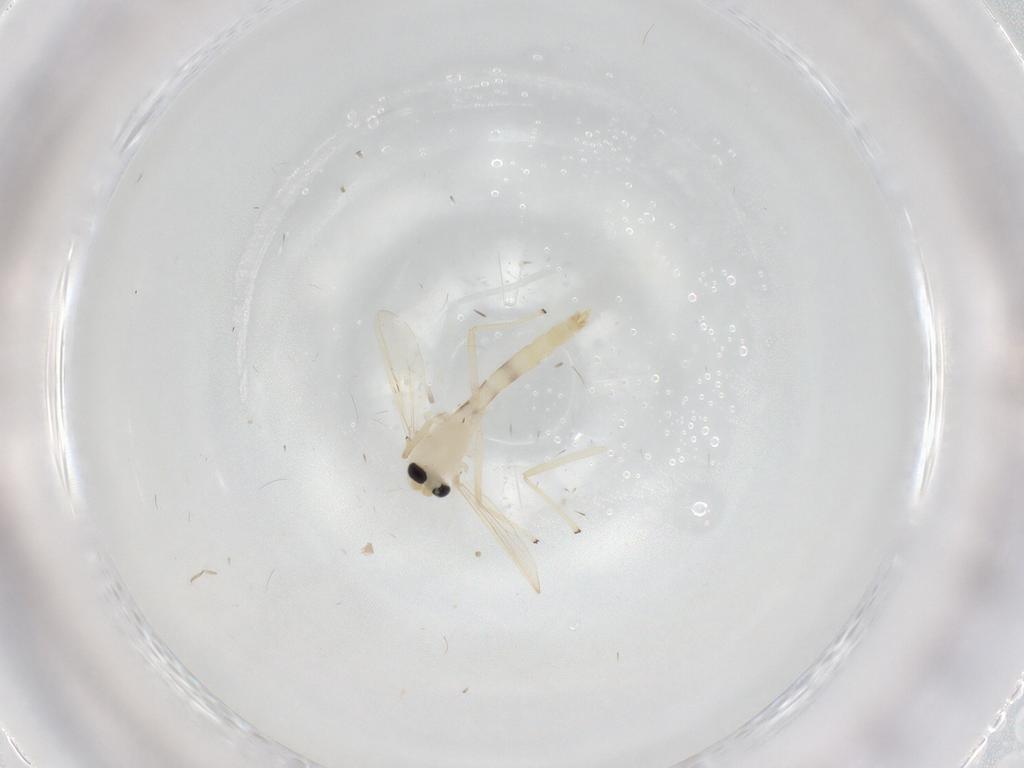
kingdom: Animalia
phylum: Arthropoda
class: Insecta
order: Diptera
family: Chironomidae
